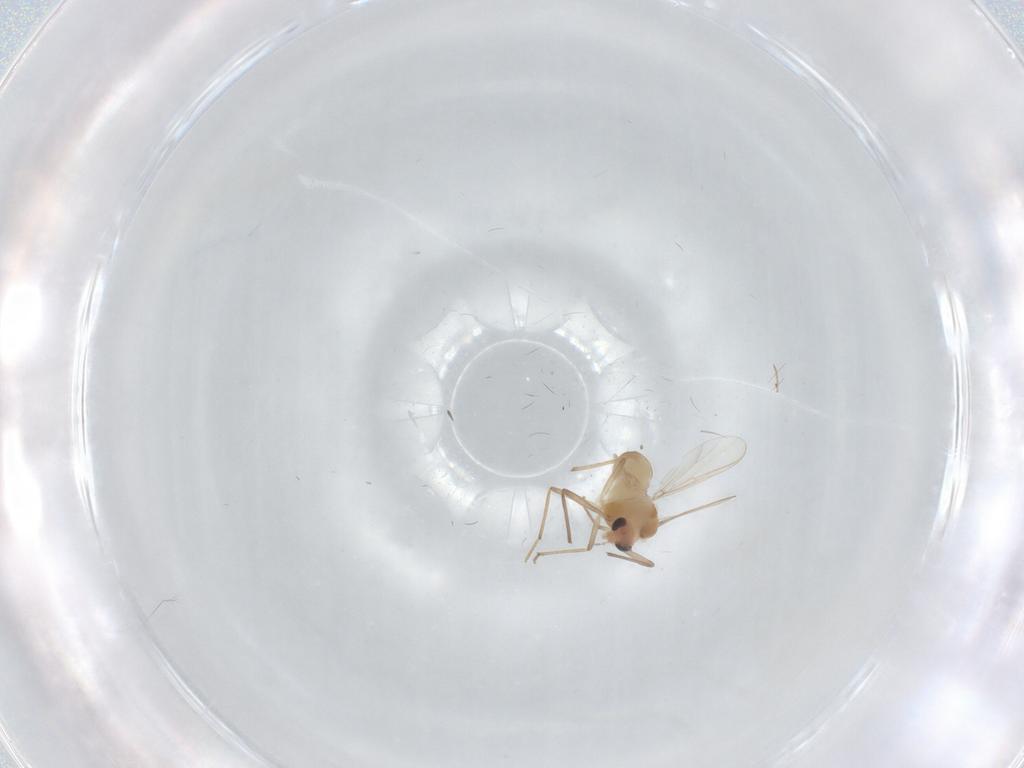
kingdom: Animalia
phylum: Arthropoda
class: Insecta
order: Diptera
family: Chironomidae
